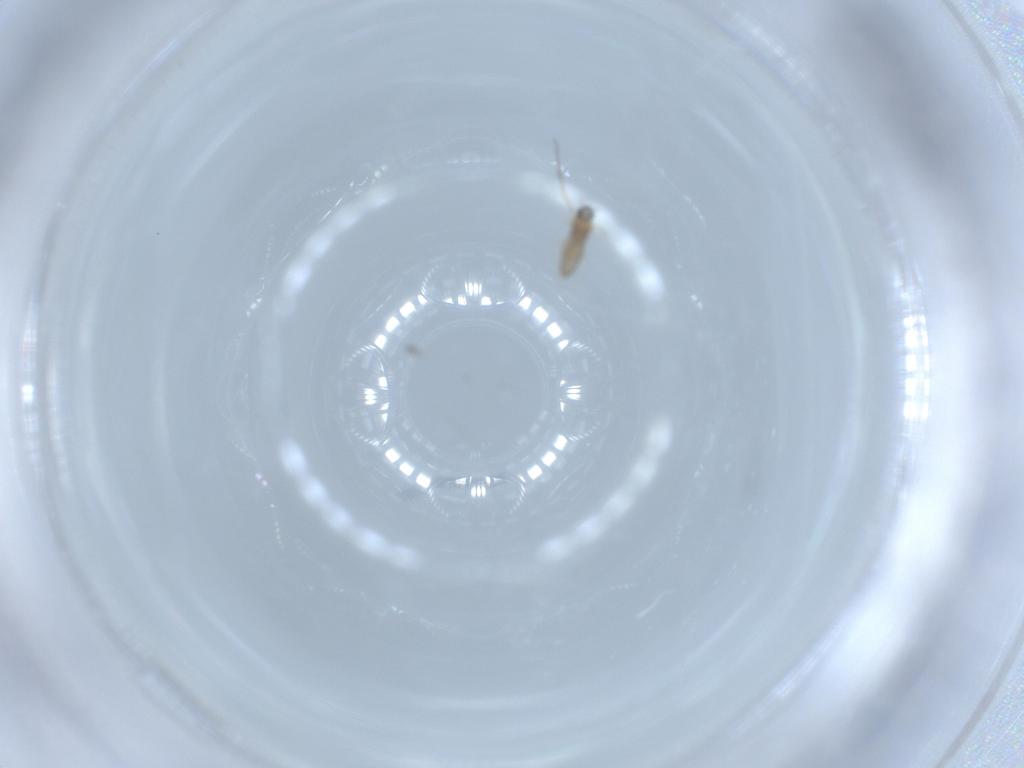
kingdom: Animalia
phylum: Arthropoda
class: Insecta
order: Diptera
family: Cecidomyiidae
